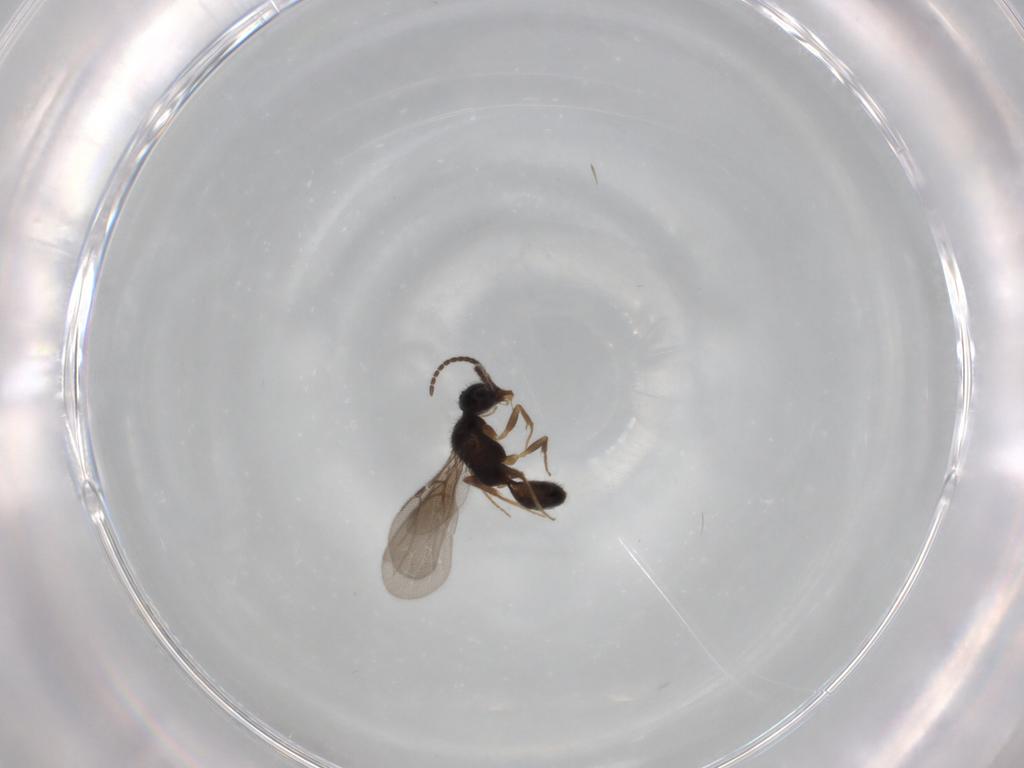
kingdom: Animalia
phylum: Arthropoda
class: Insecta
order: Hymenoptera
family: Bethylidae
